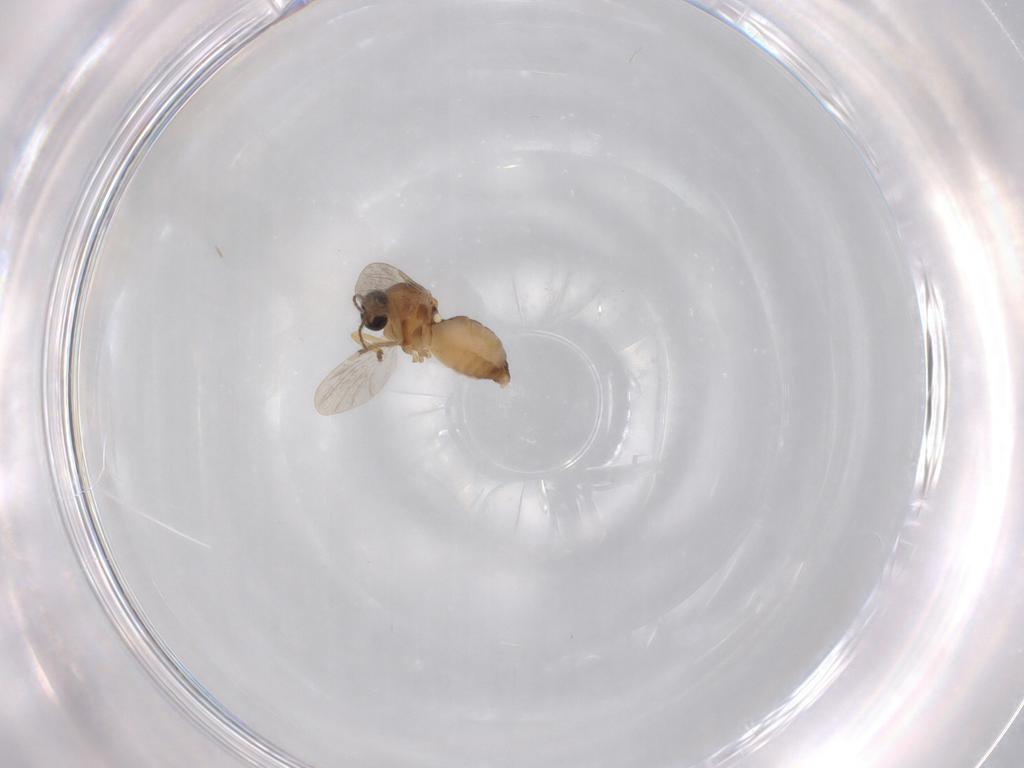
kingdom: Animalia
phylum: Arthropoda
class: Insecta
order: Diptera
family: Ceratopogonidae
